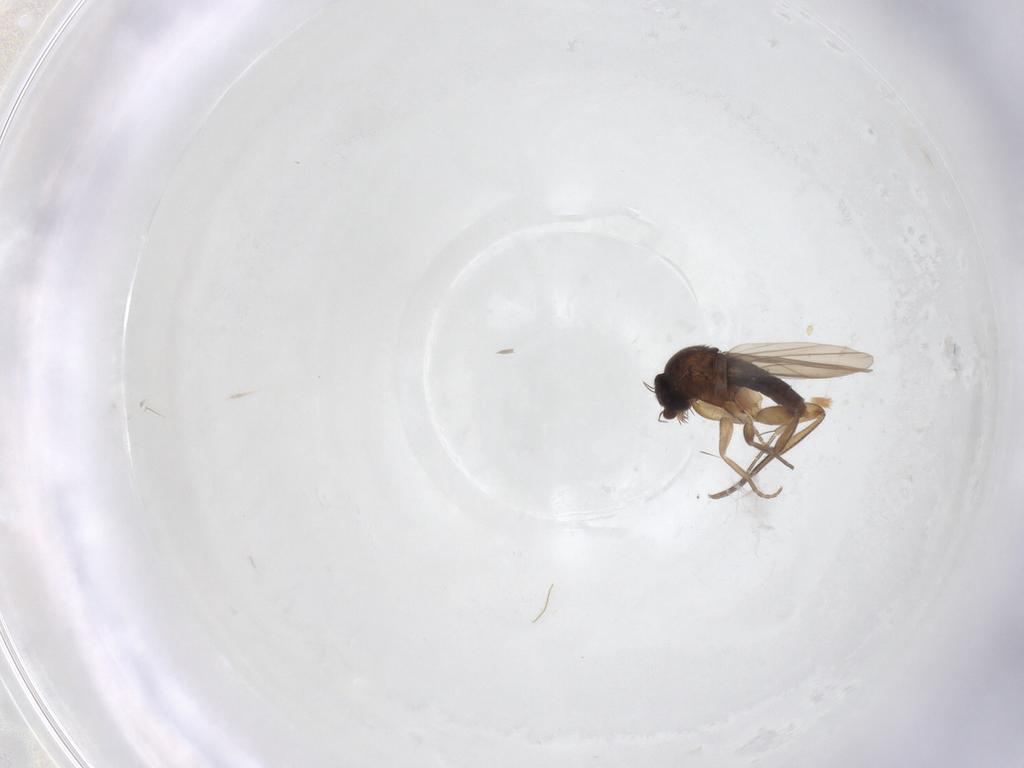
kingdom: Animalia
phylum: Arthropoda
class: Insecta
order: Diptera
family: Phoridae
